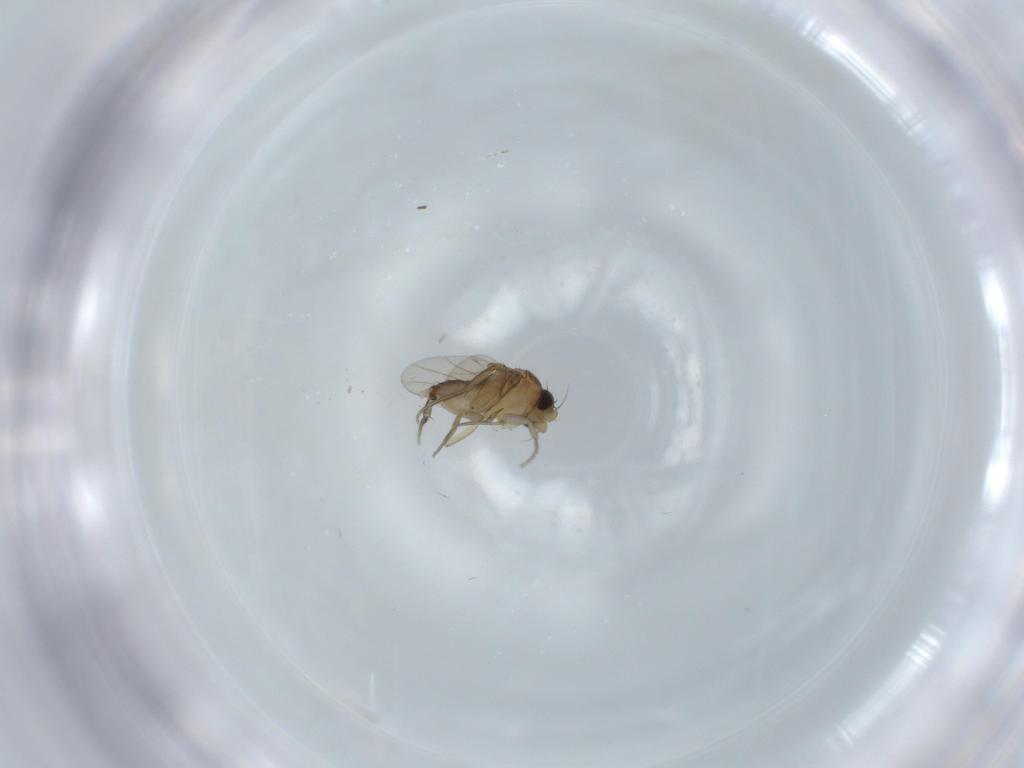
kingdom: Animalia
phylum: Arthropoda
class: Insecta
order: Diptera
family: Phoridae
